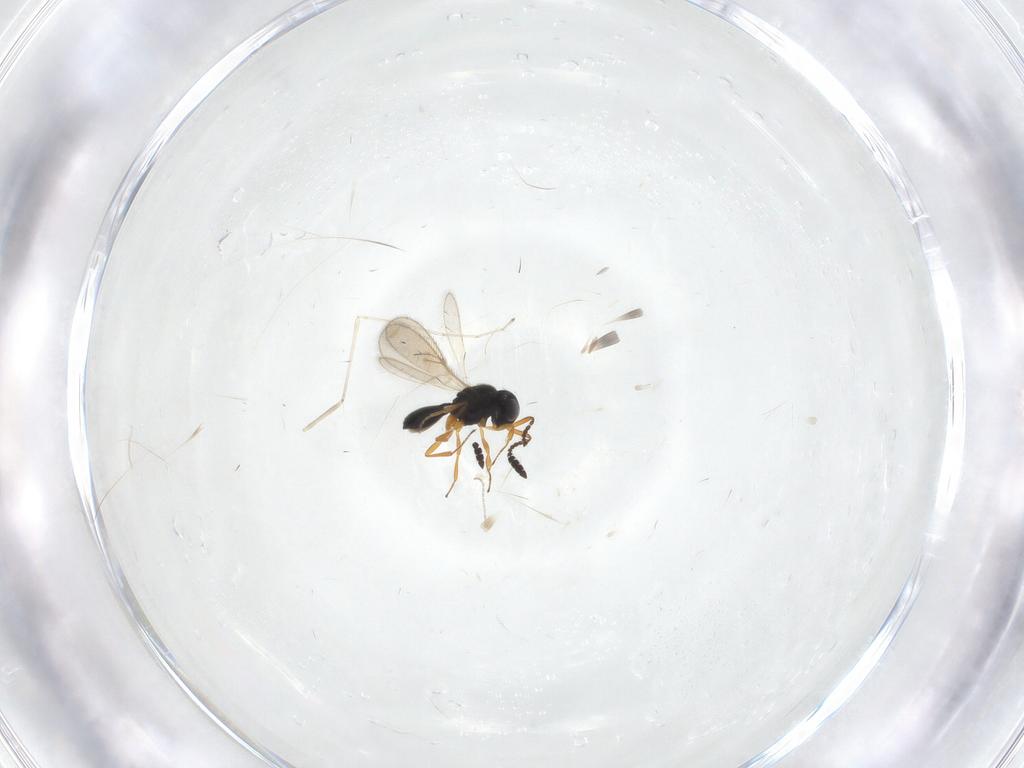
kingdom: Animalia
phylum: Arthropoda
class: Insecta
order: Hymenoptera
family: Scelionidae
